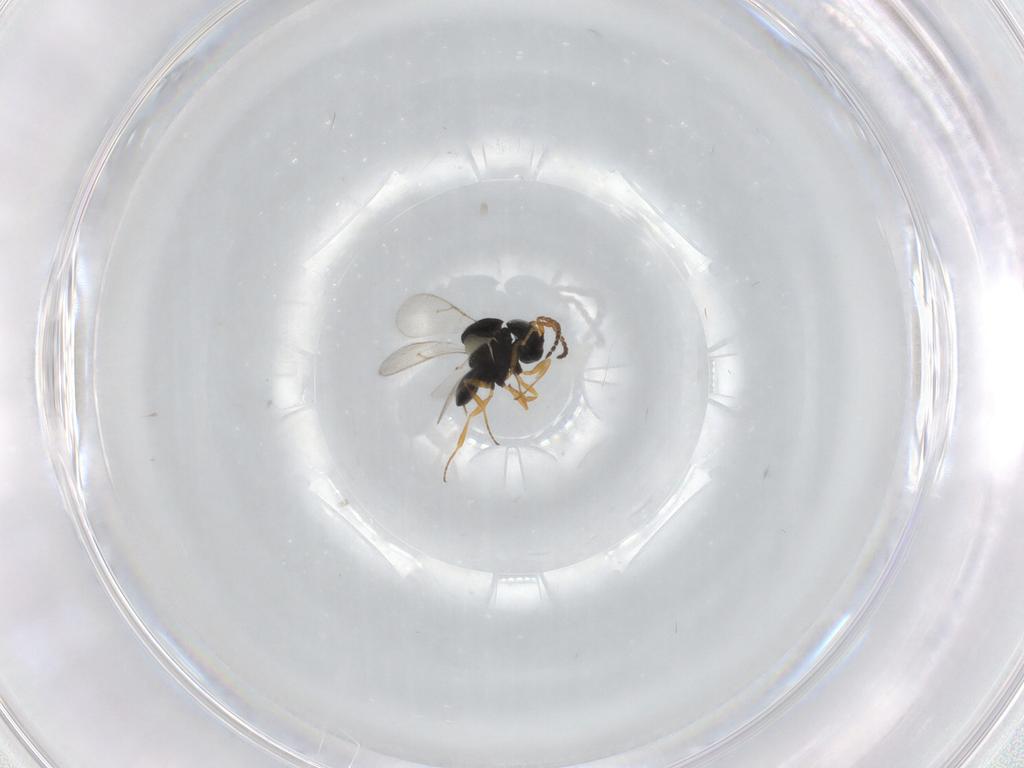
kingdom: Animalia
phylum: Arthropoda
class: Insecta
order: Hymenoptera
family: Scelionidae
